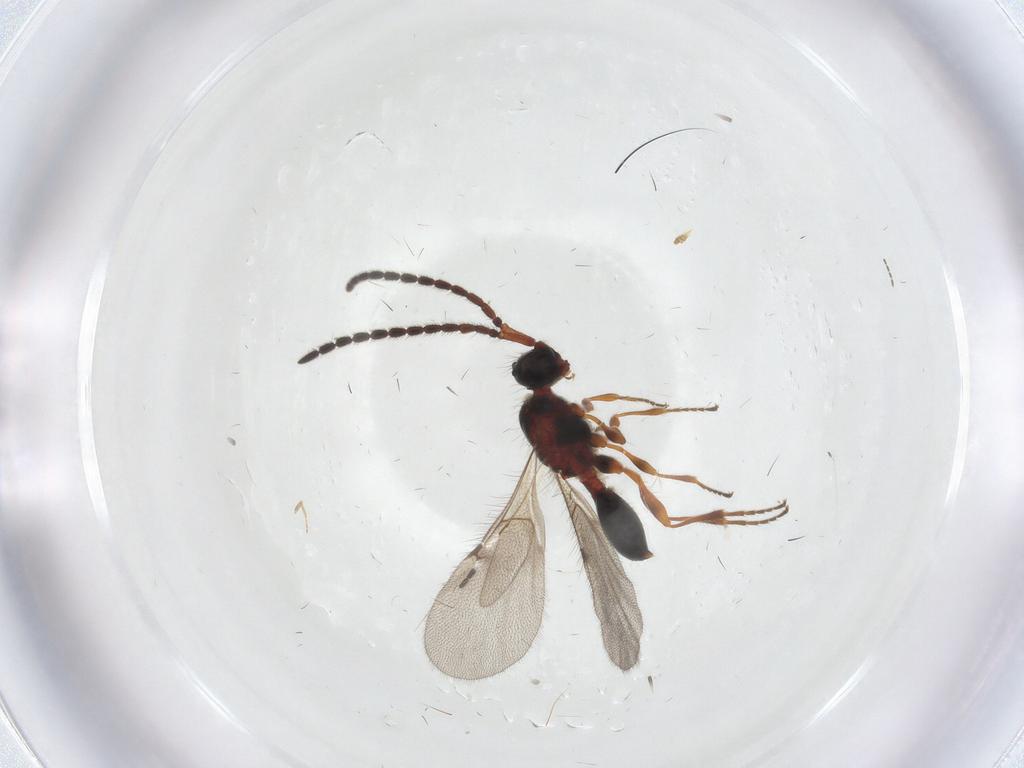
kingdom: Animalia
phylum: Arthropoda
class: Insecta
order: Hymenoptera
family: Diapriidae
